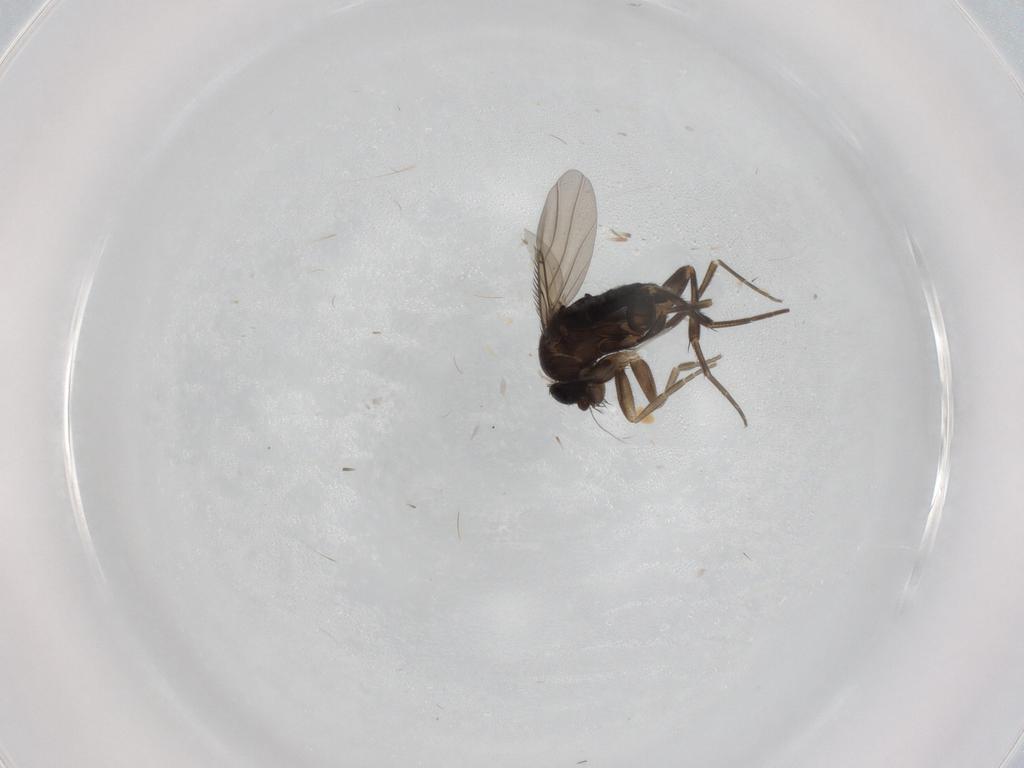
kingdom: Animalia
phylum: Arthropoda
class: Insecta
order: Diptera
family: Phoridae
